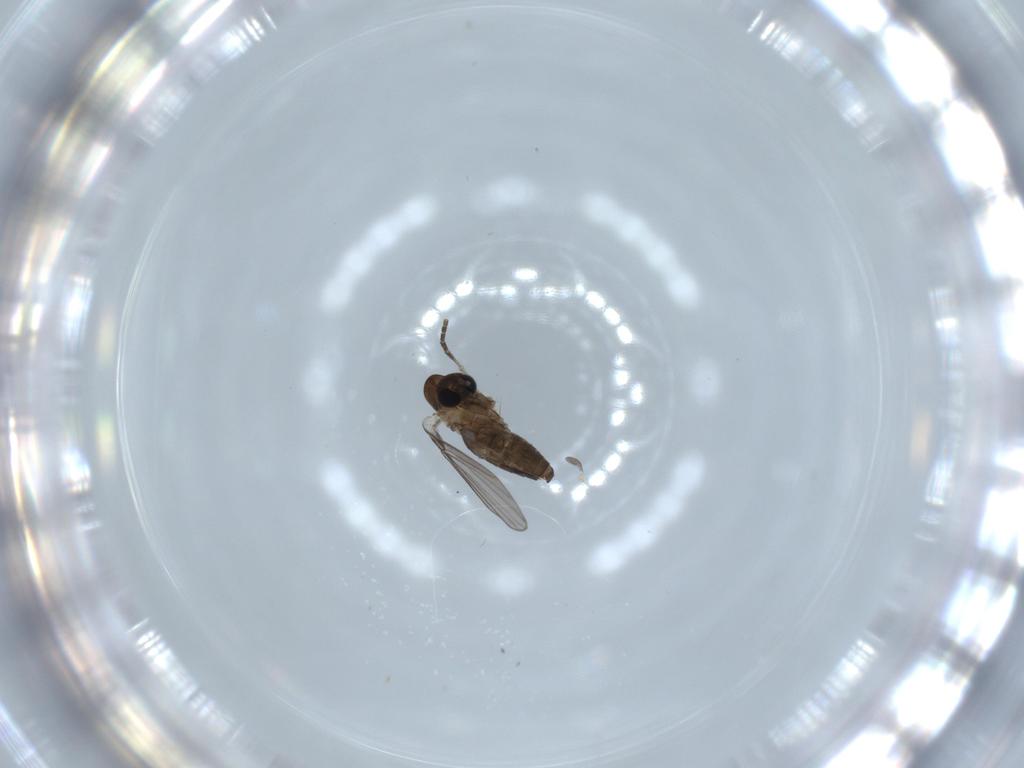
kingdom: Animalia
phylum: Arthropoda
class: Insecta
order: Diptera
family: Psychodidae
